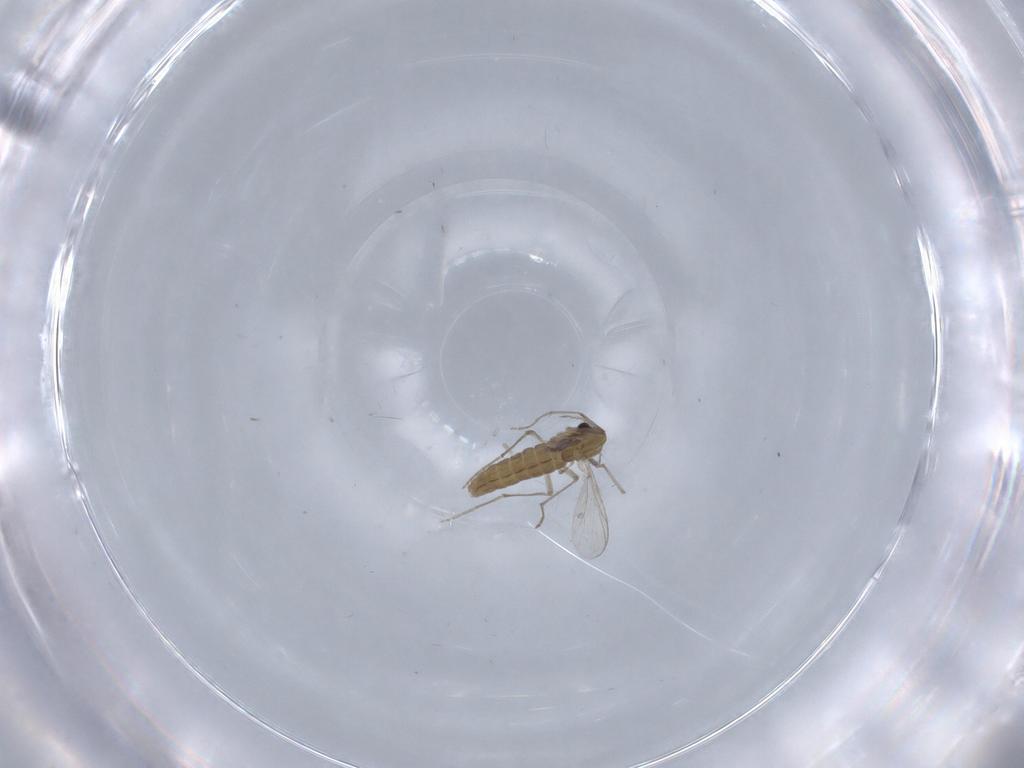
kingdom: Animalia
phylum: Arthropoda
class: Insecta
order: Diptera
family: Chironomidae
